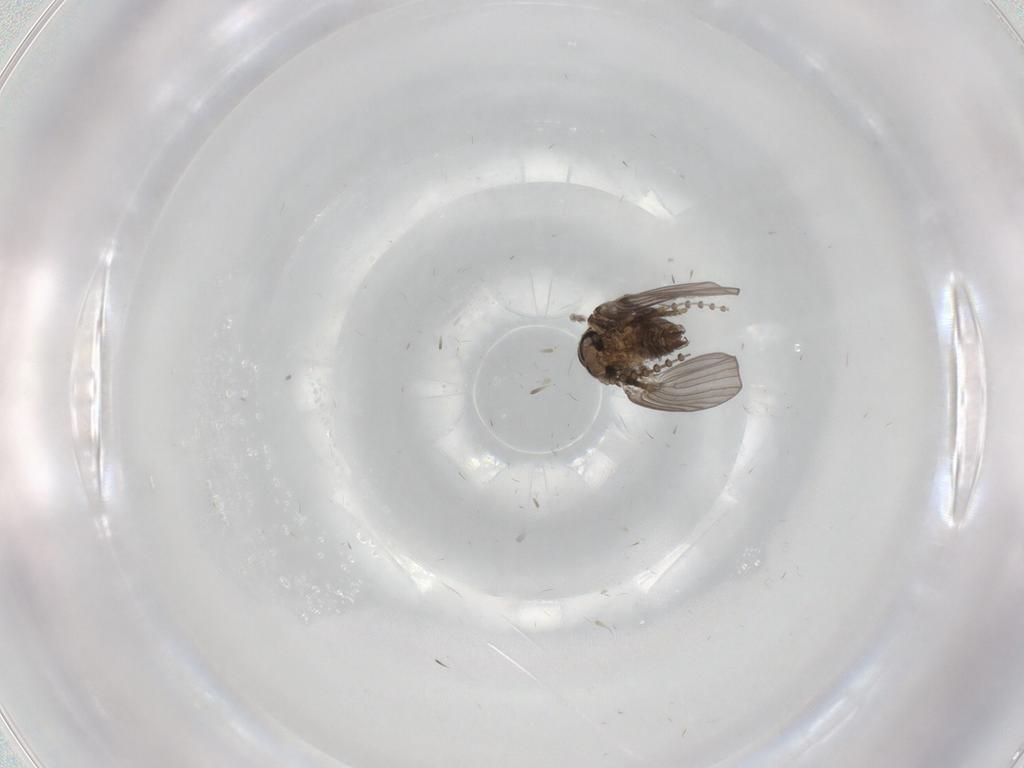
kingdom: Animalia
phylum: Arthropoda
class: Insecta
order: Diptera
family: Psychodidae
